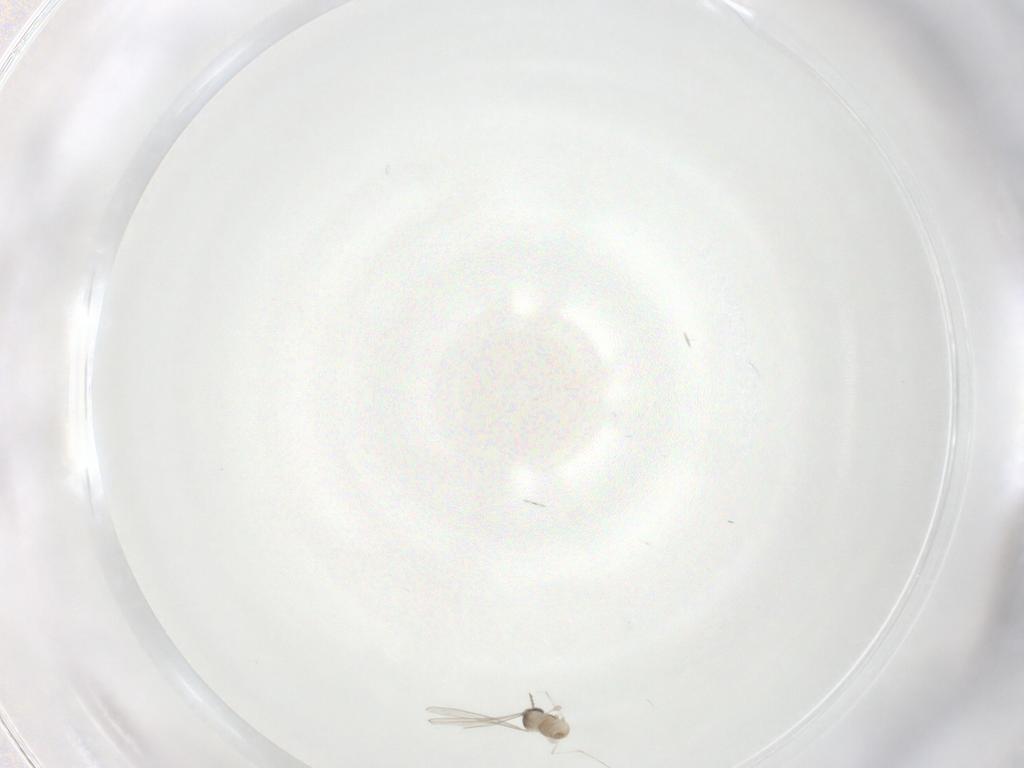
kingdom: Animalia
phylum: Arthropoda
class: Insecta
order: Diptera
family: Cecidomyiidae
